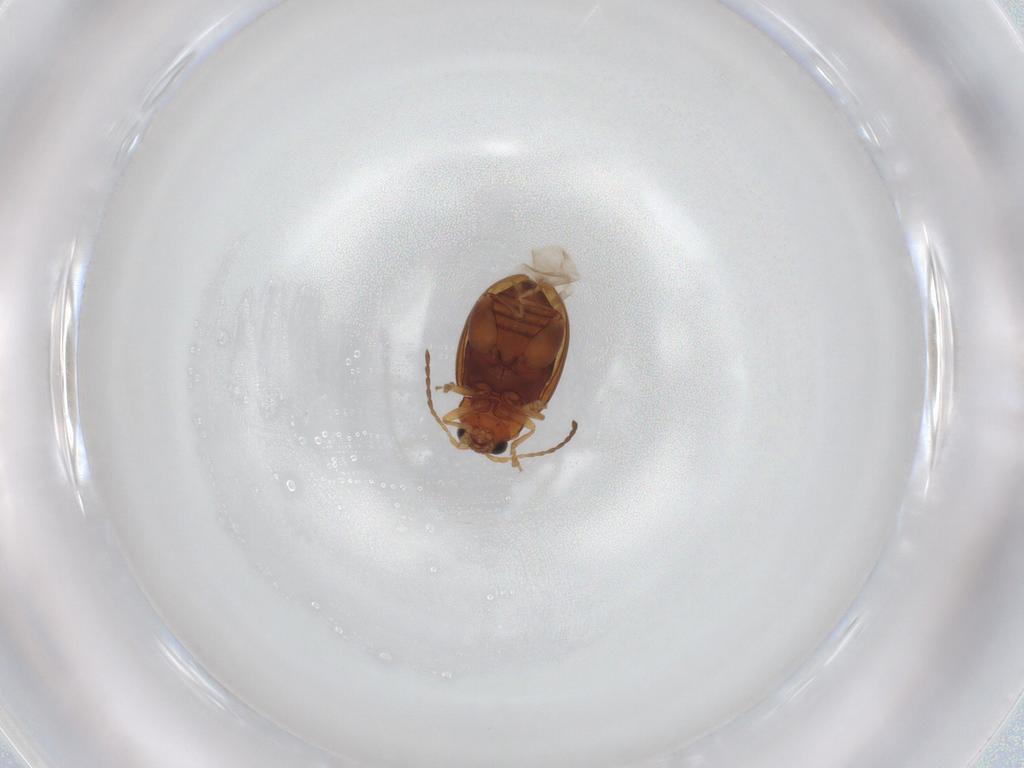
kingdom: Animalia
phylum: Arthropoda
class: Insecta
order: Coleoptera
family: Chrysomelidae
